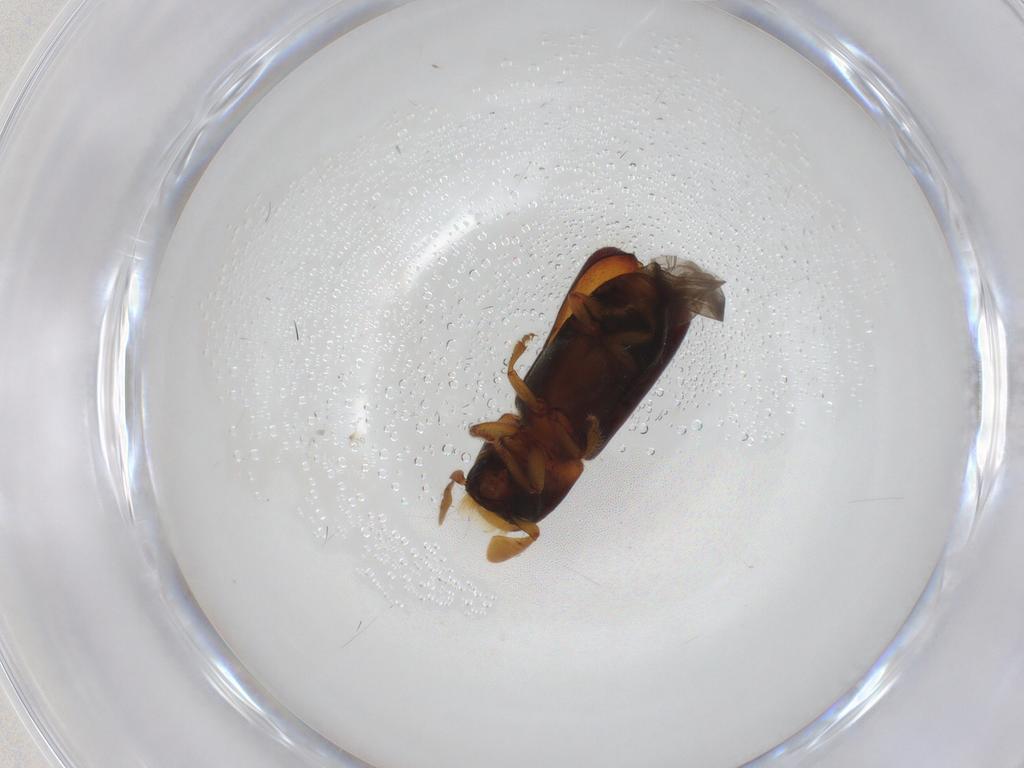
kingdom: Animalia
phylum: Arthropoda
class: Insecta
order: Coleoptera
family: Curculionidae
